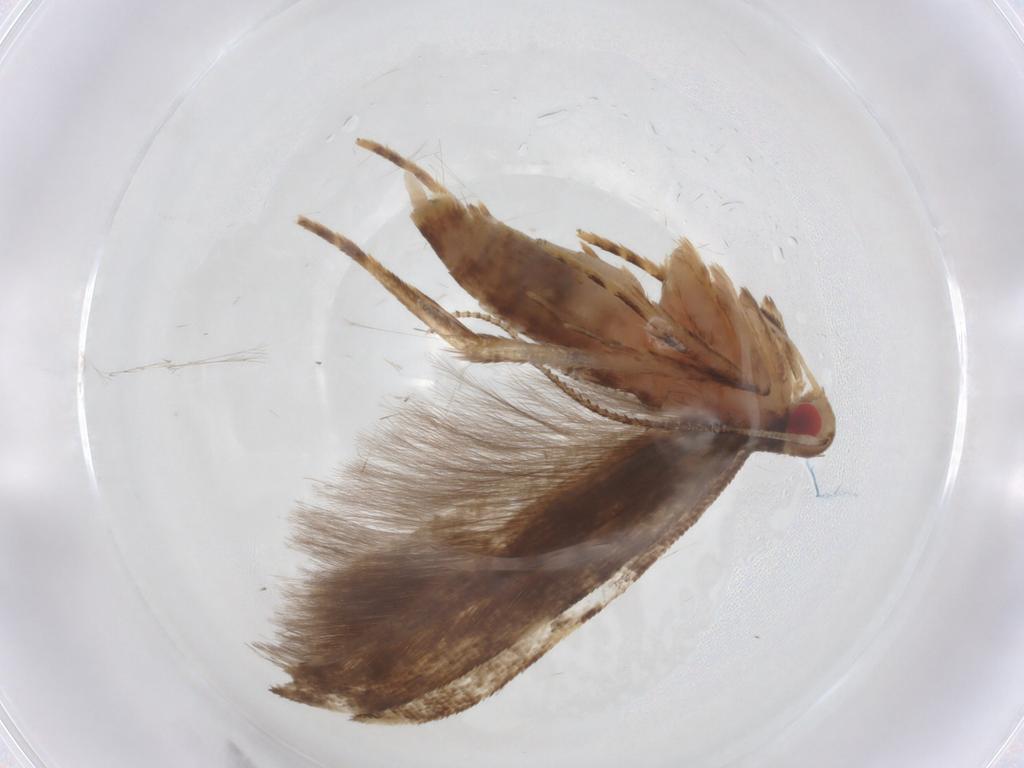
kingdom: Animalia
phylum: Arthropoda
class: Insecta
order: Lepidoptera
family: Cosmopterigidae
